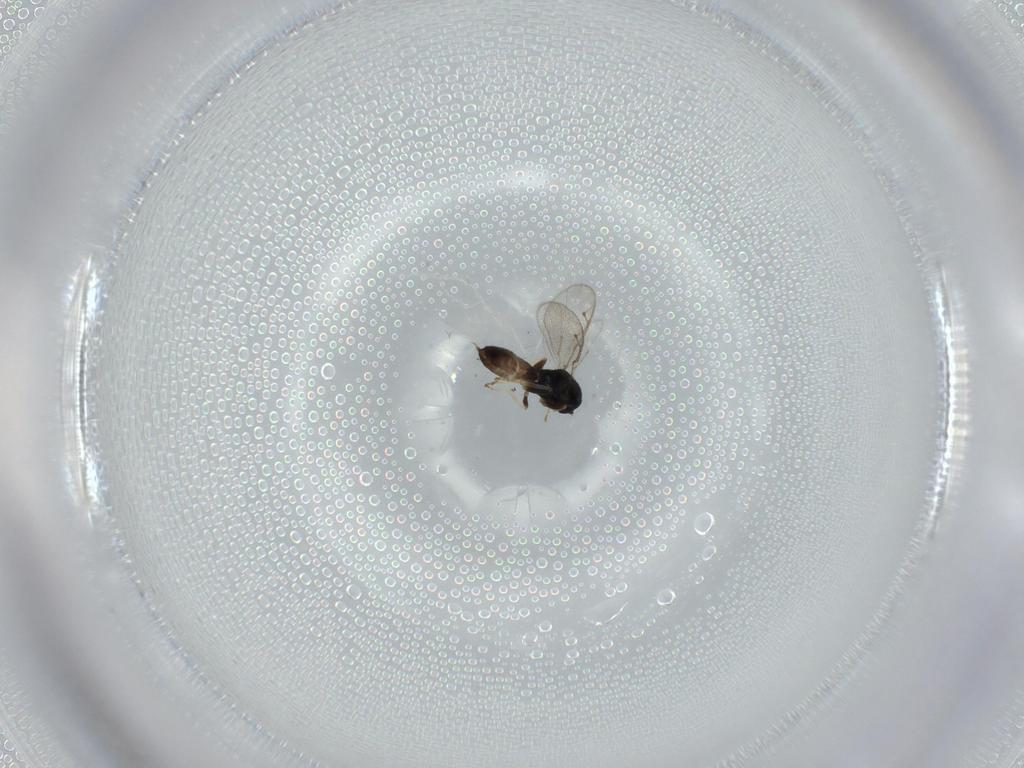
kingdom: Animalia
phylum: Arthropoda
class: Insecta
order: Hymenoptera
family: Pteromalidae
